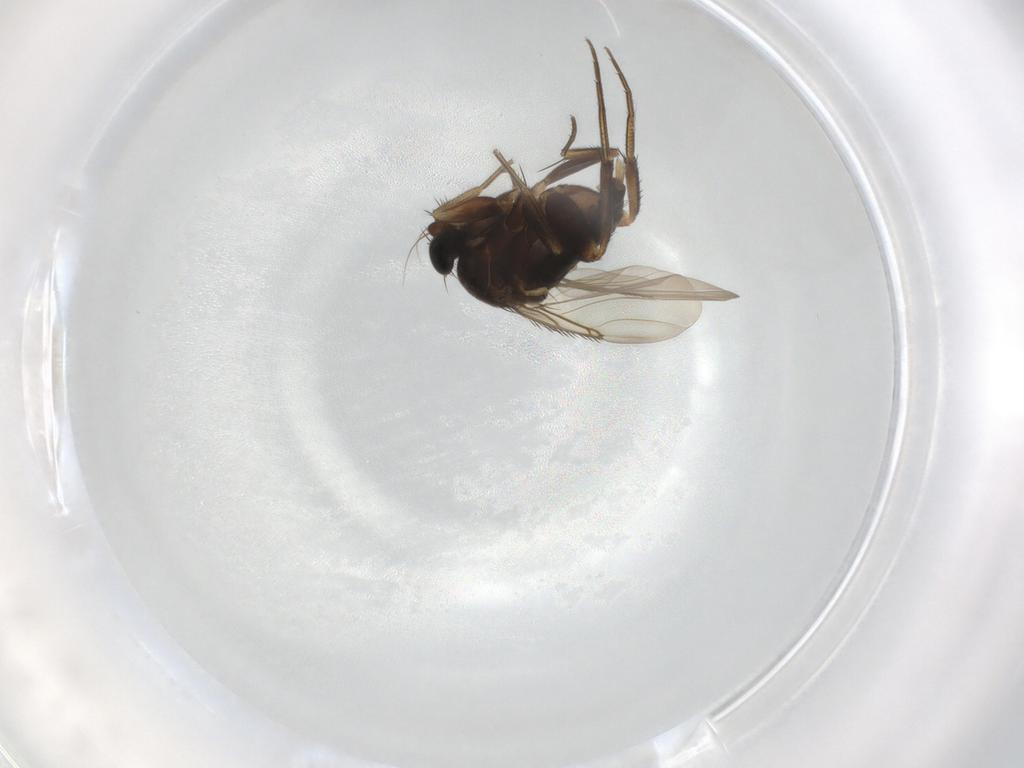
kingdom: Animalia
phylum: Arthropoda
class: Insecta
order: Diptera
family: Phoridae
